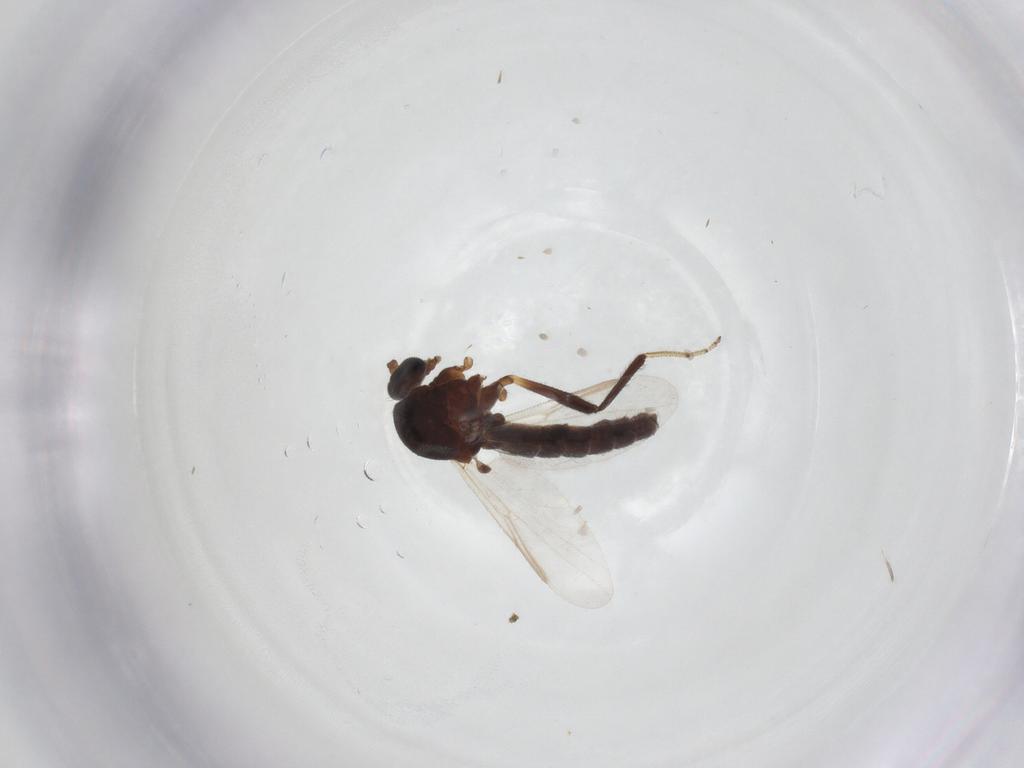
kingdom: Animalia
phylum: Arthropoda
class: Insecta
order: Diptera
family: Ceratopogonidae
